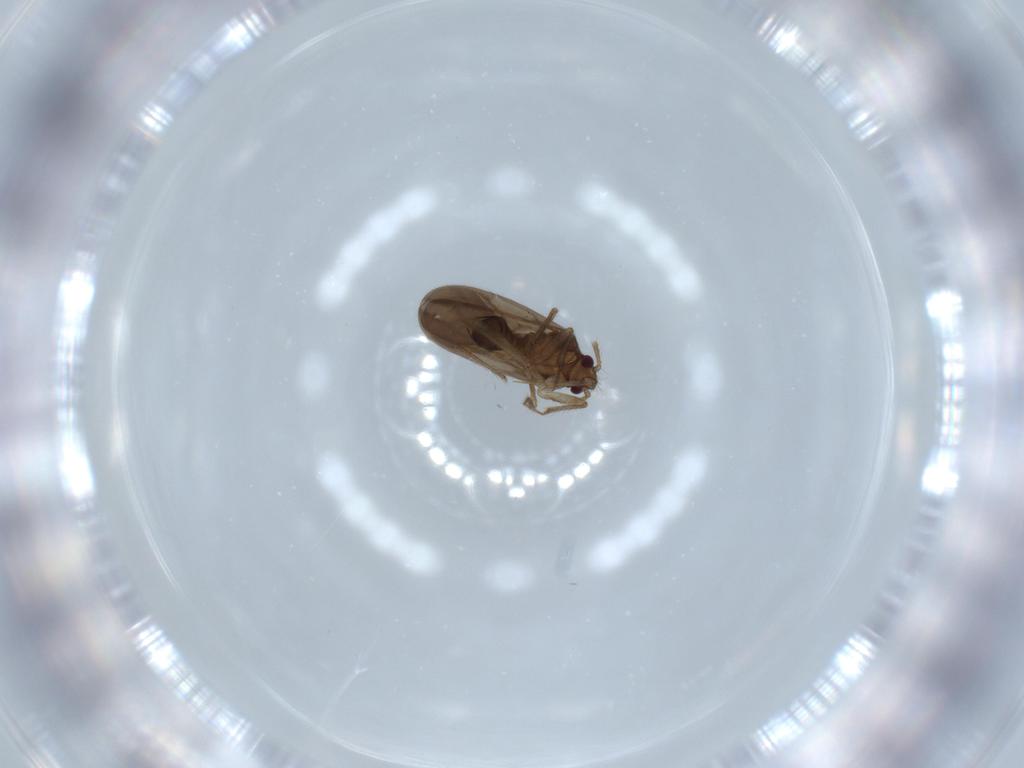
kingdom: Animalia
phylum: Arthropoda
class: Insecta
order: Hemiptera
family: Ceratocombidae
